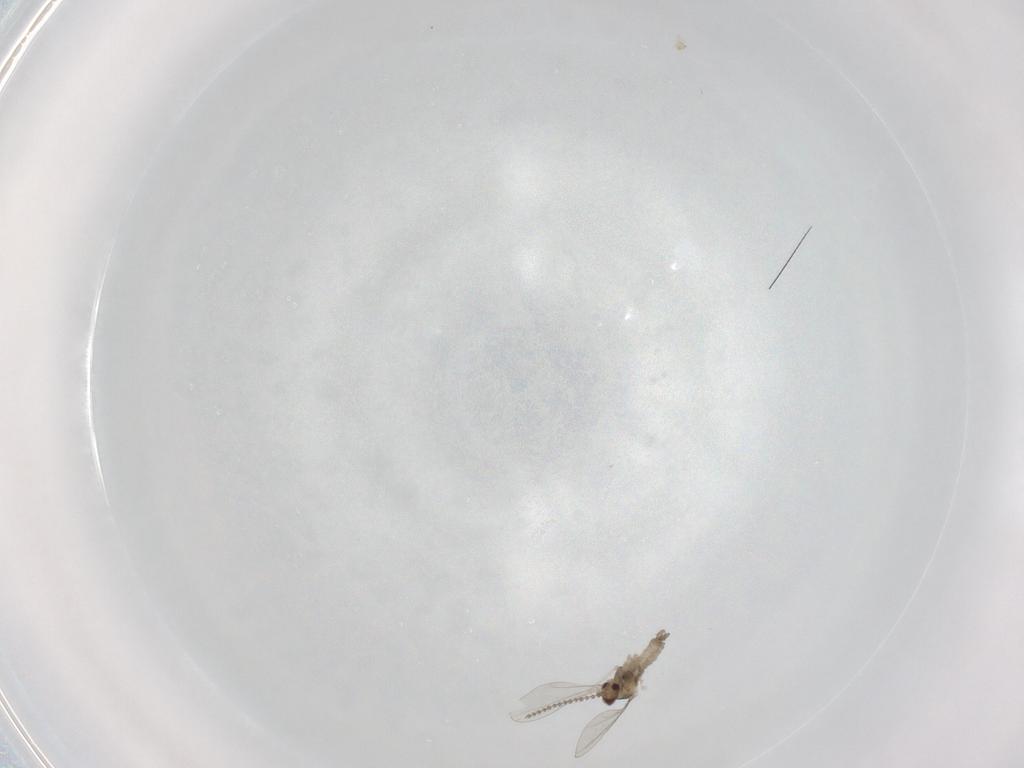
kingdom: Animalia
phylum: Arthropoda
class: Insecta
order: Diptera
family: Cecidomyiidae
